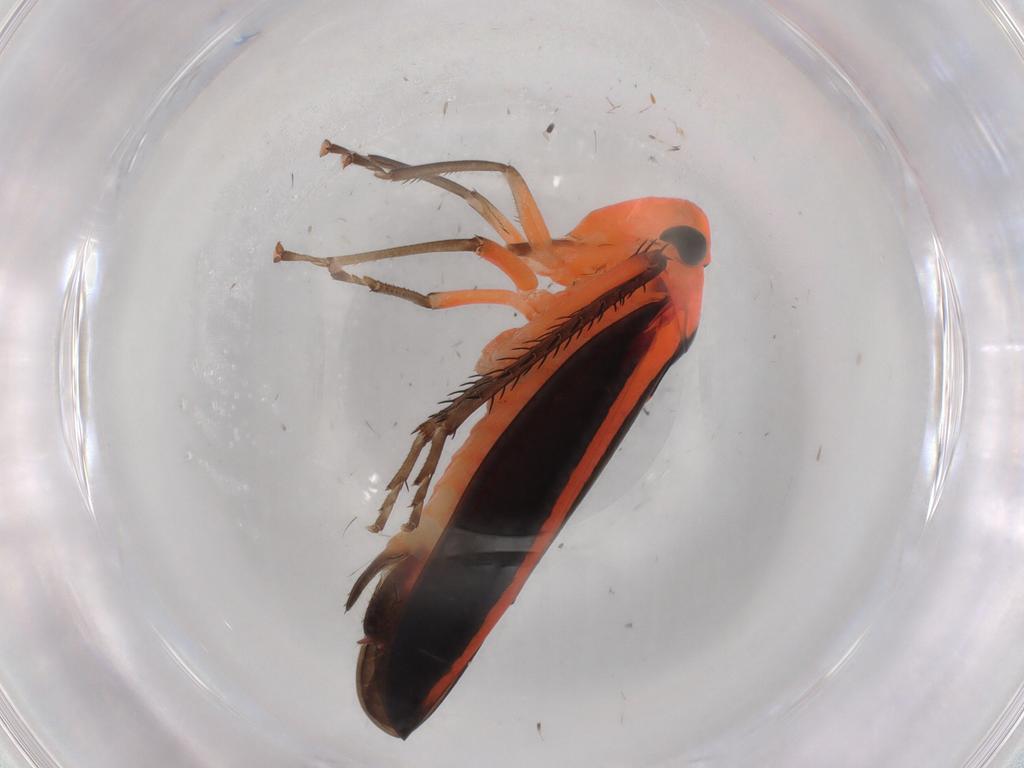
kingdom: Animalia
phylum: Arthropoda
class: Insecta
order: Hemiptera
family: Cicadellidae
